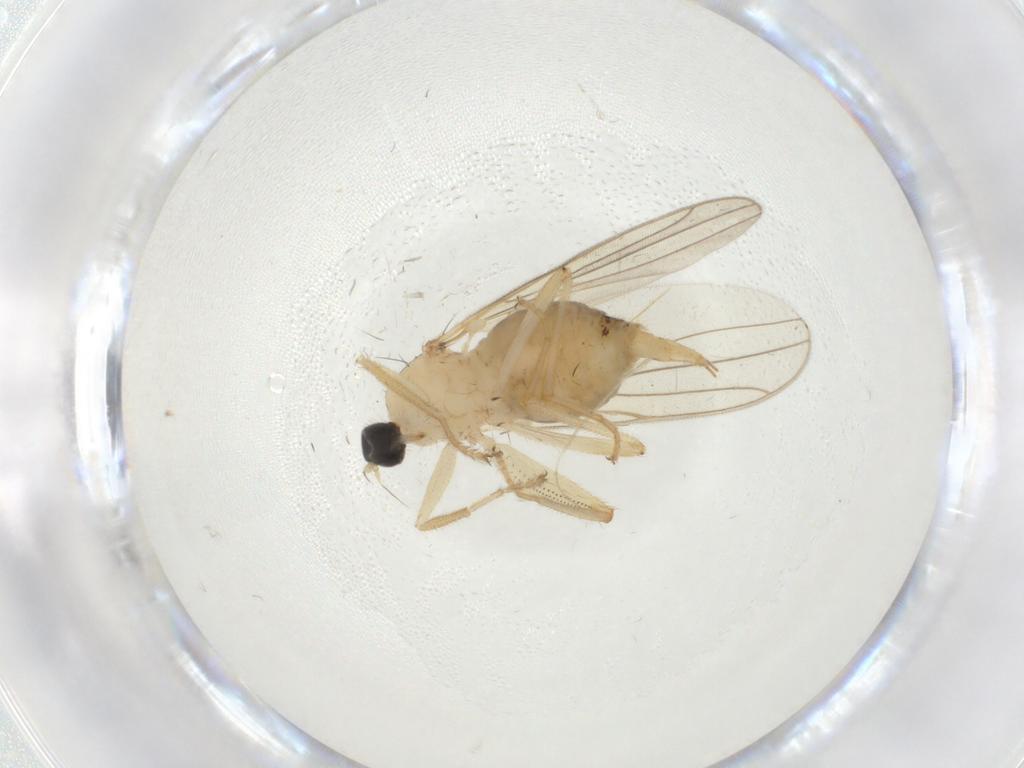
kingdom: Animalia
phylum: Arthropoda
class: Insecta
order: Diptera
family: Hybotidae
